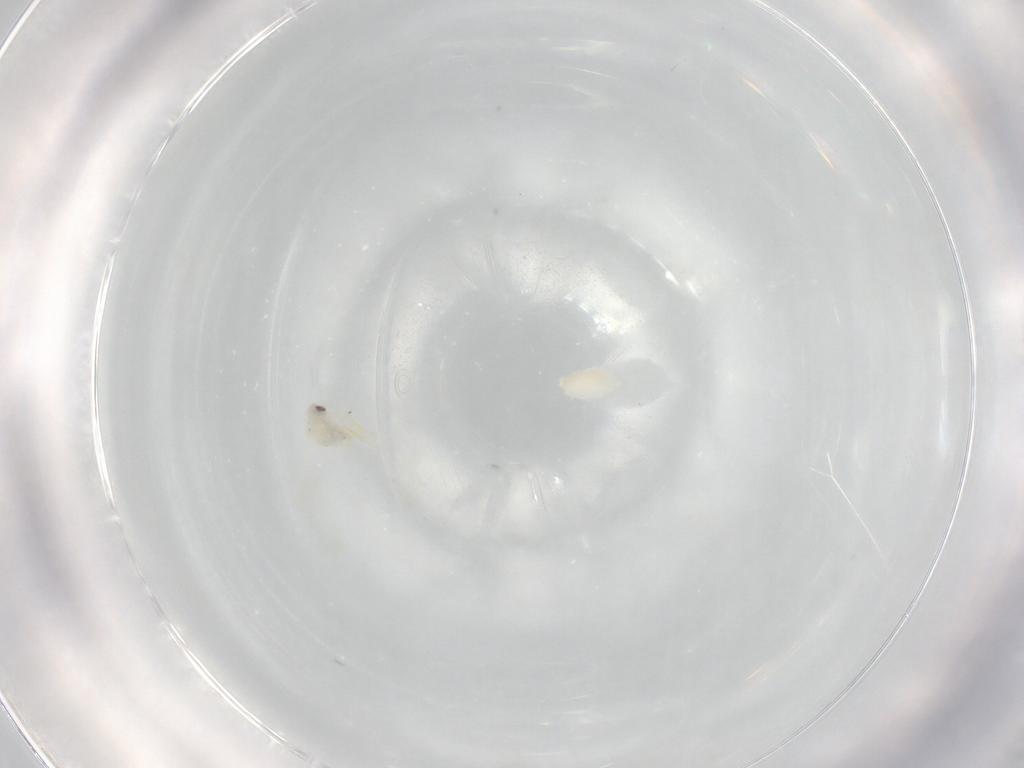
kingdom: Animalia
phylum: Arthropoda
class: Insecta
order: Hemiptera
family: Aleyrodidae
